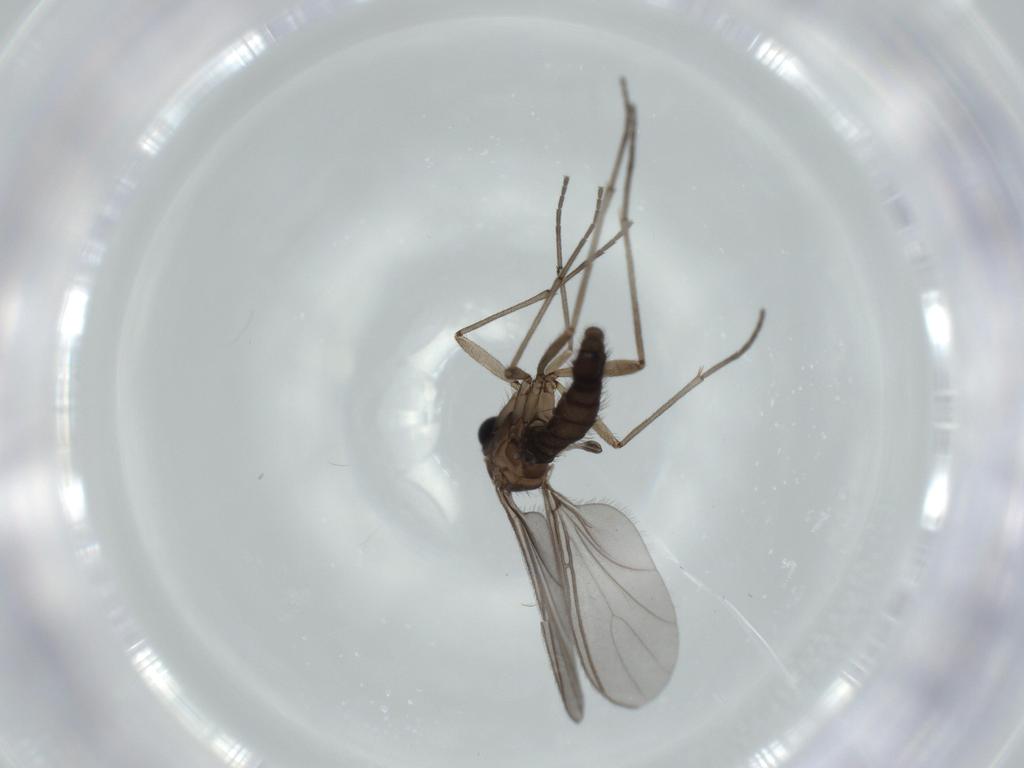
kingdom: Animalia
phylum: Arthropoda
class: Insecta
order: Diptera
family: Sciaridae
